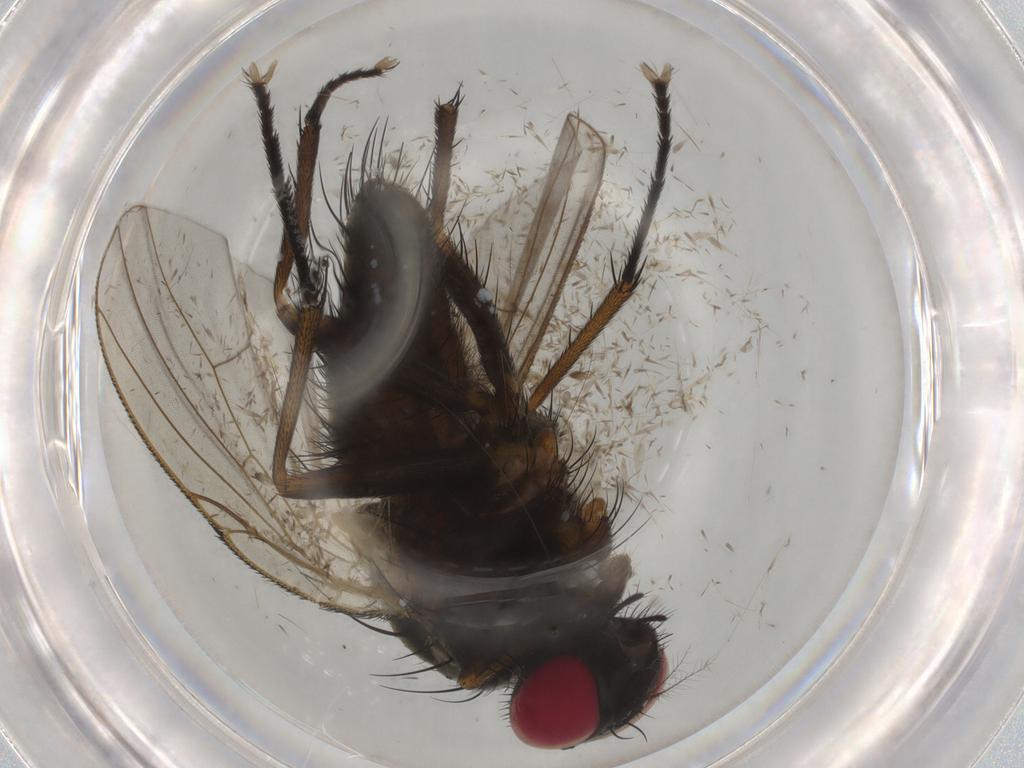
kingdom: Animalia
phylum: Arthropoda
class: Insecta
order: Diptera
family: Muscidae
